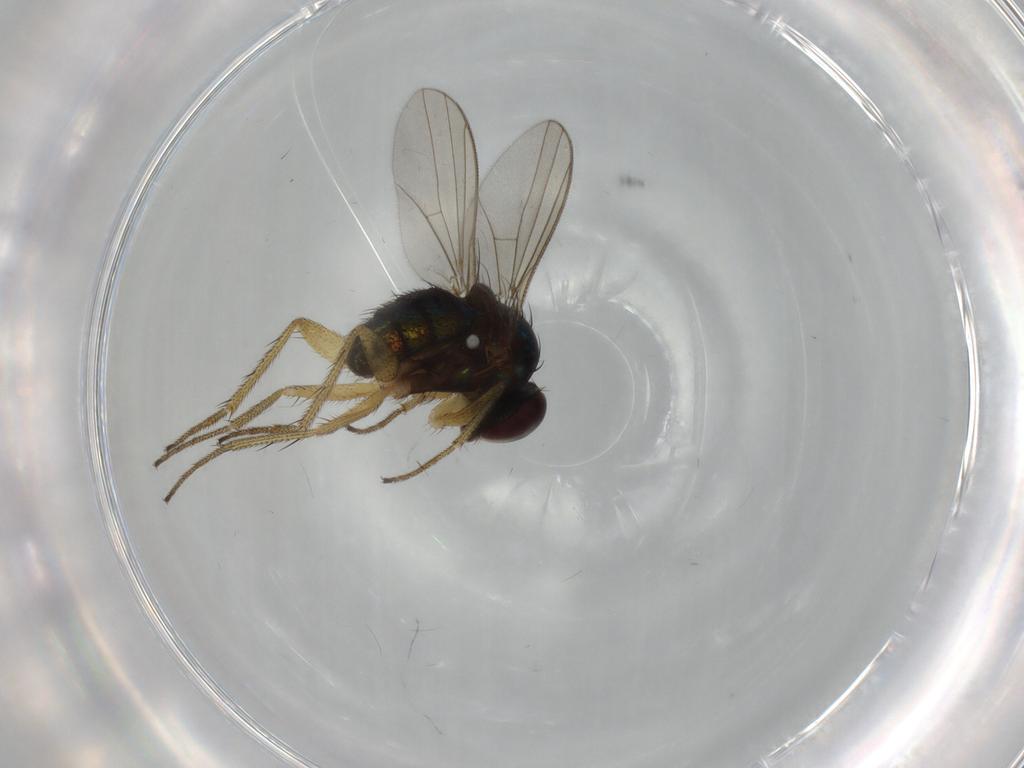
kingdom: Animalia
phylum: Arthropoda
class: Insecta
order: Diptera
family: Dolichopodidae
